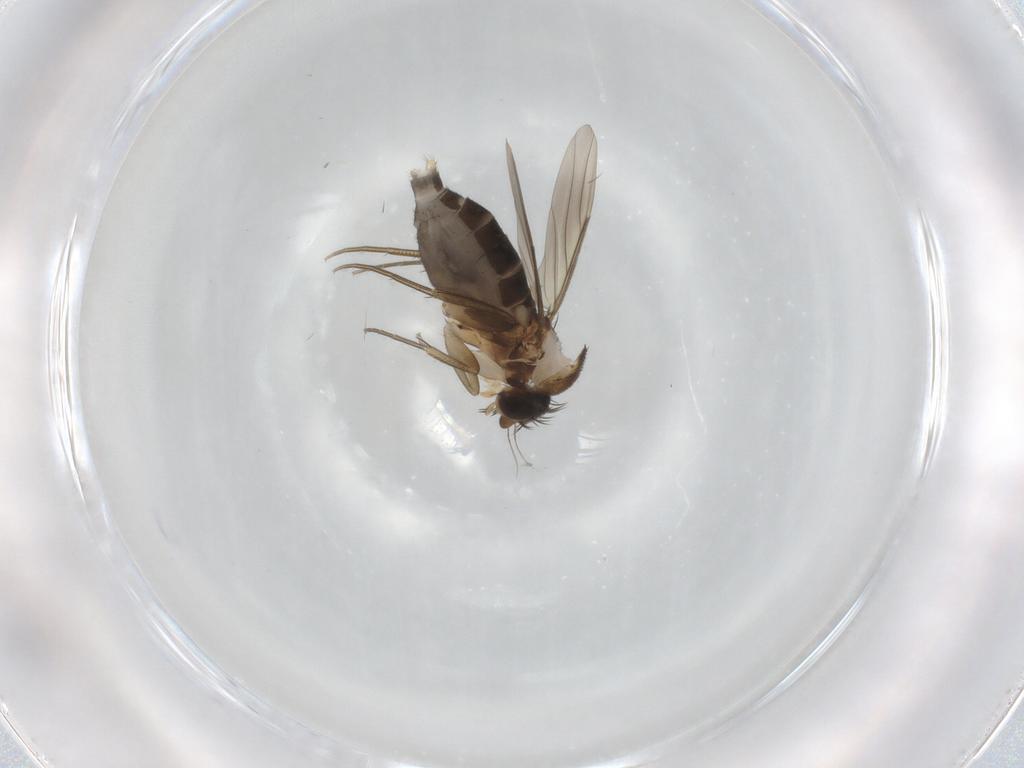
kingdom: Animalia
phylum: Arthropoda
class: Insecta
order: Diptera
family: Phoridae
